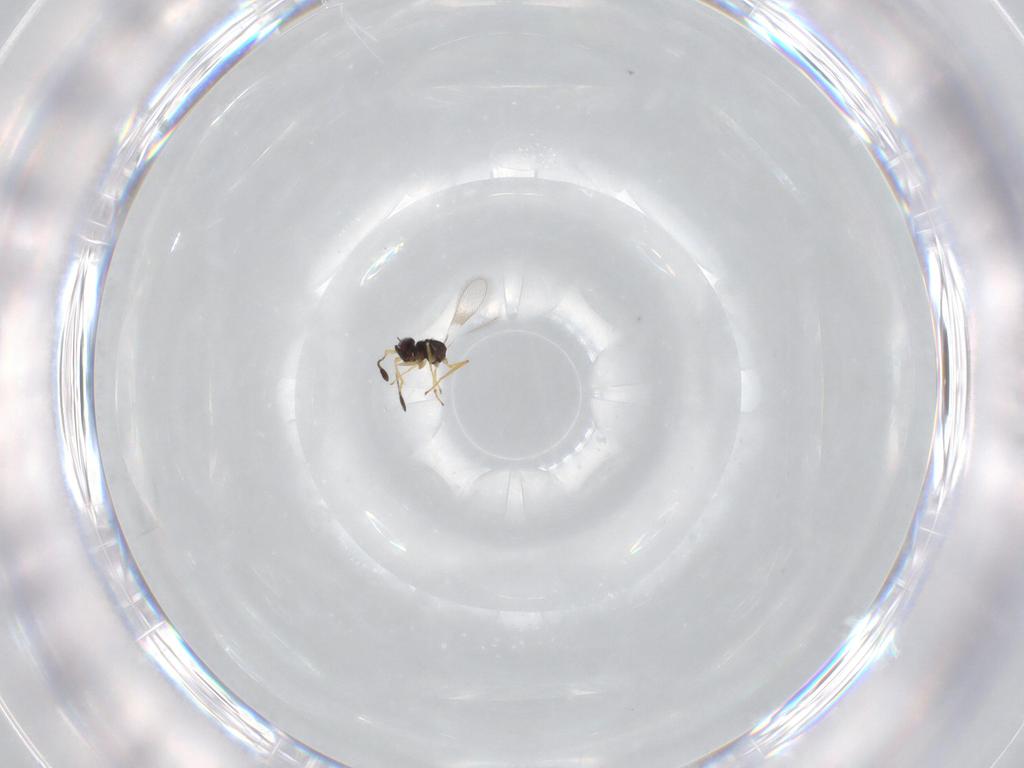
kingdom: Animalia
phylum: Arthropoda
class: Insecta
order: Hymenoptera
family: Mymaridae
